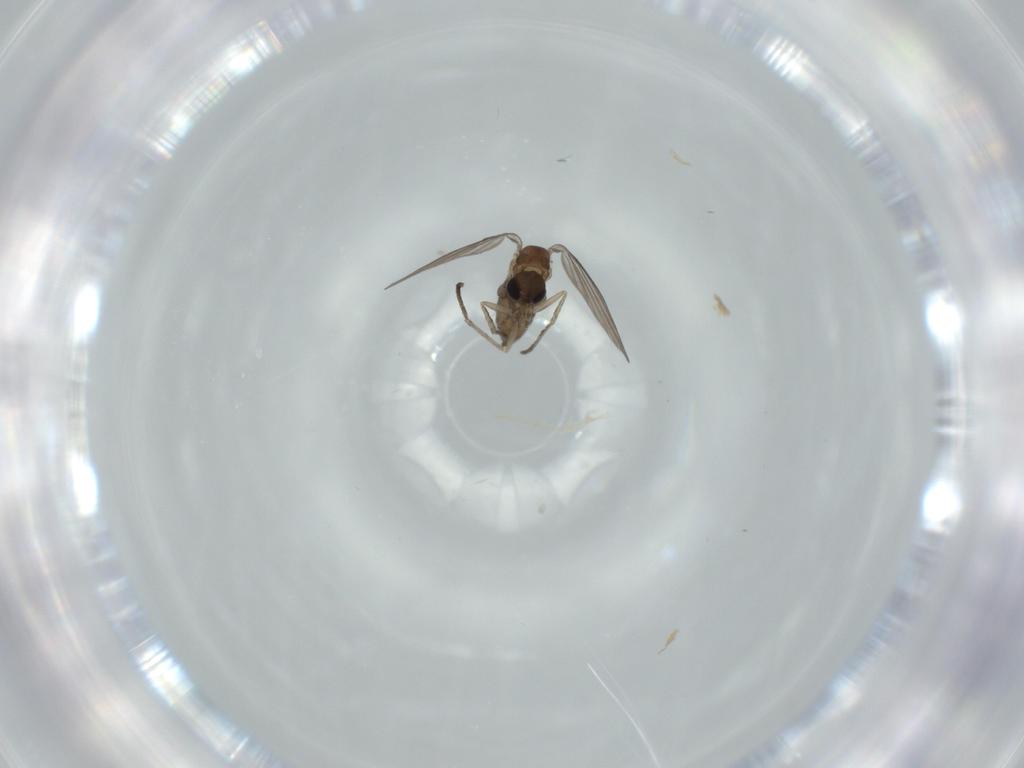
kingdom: Animalia
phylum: Arthropoda
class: Insecta
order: Diptera
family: Psychodidae
